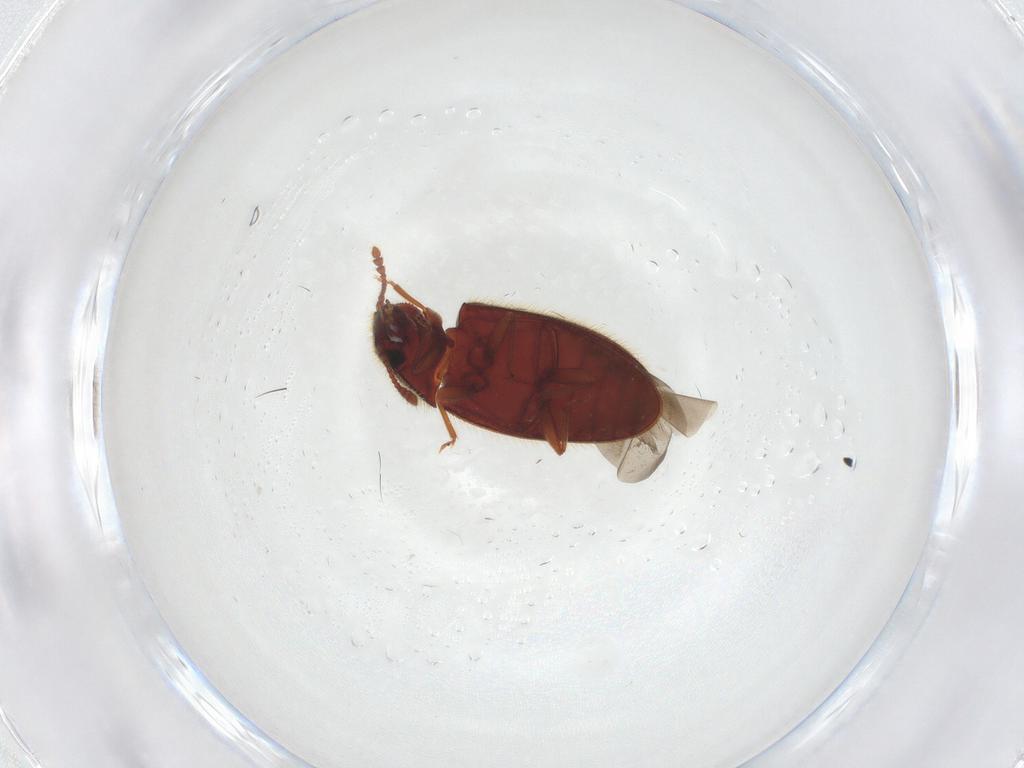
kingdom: Animalia
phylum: Arthropoda
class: Insecta
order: Coleoptera
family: Lampyridae
